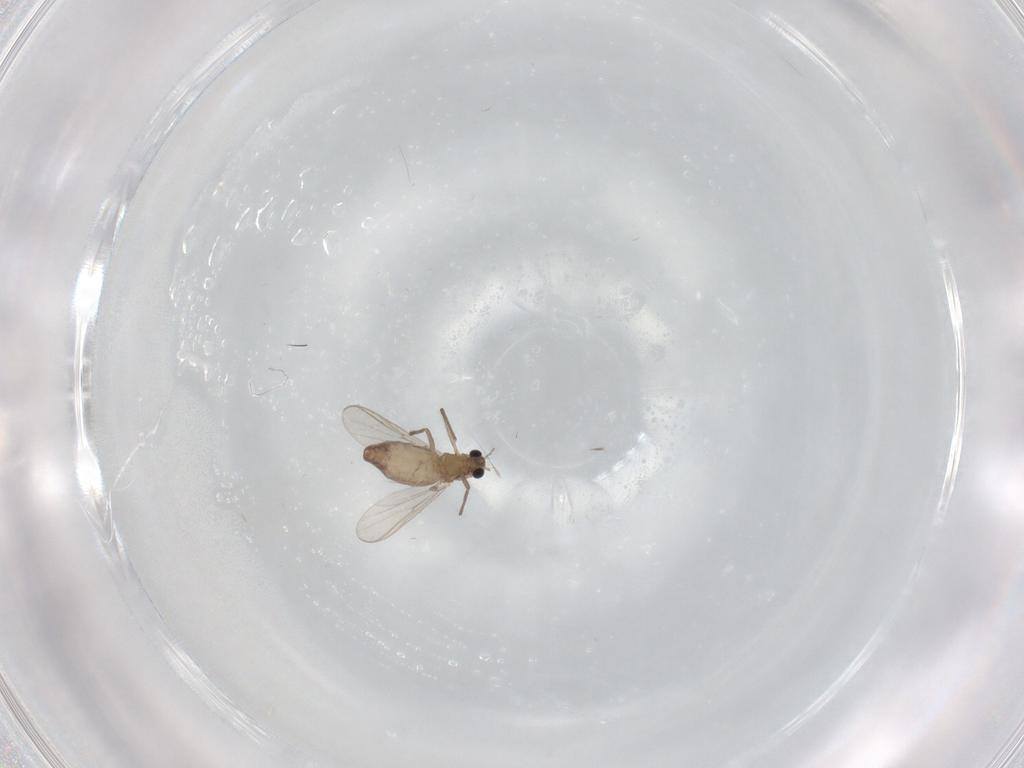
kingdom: Animalia
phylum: Arthropoda
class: Insecta
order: Diptera
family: Chironomidae
